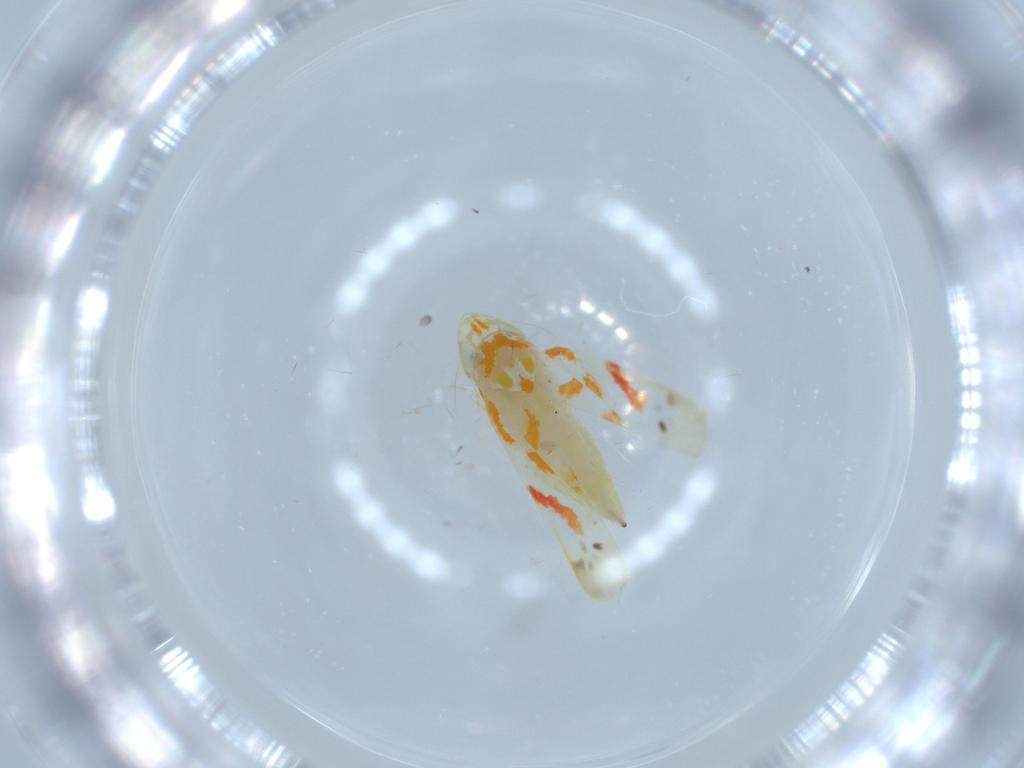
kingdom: Animalia
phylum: Arthropoda
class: Insecta
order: Hemiptera
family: Cicadellidae
